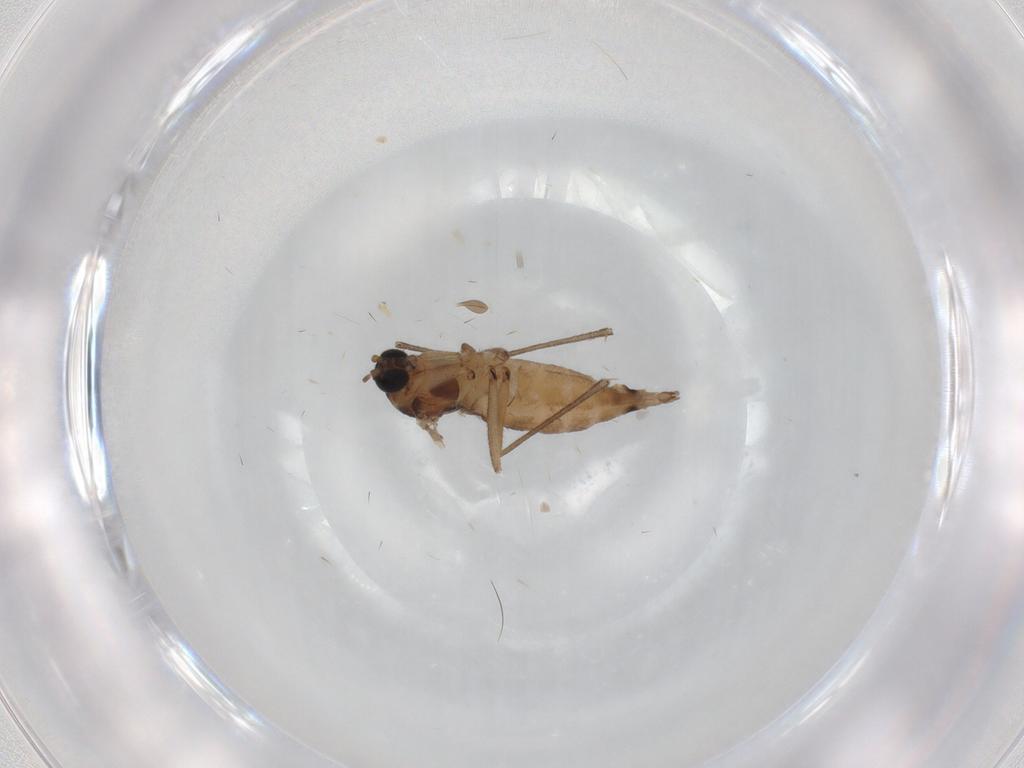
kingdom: Animalia
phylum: Arthropoda
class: Insecta
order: Diptera
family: Sciaridae
